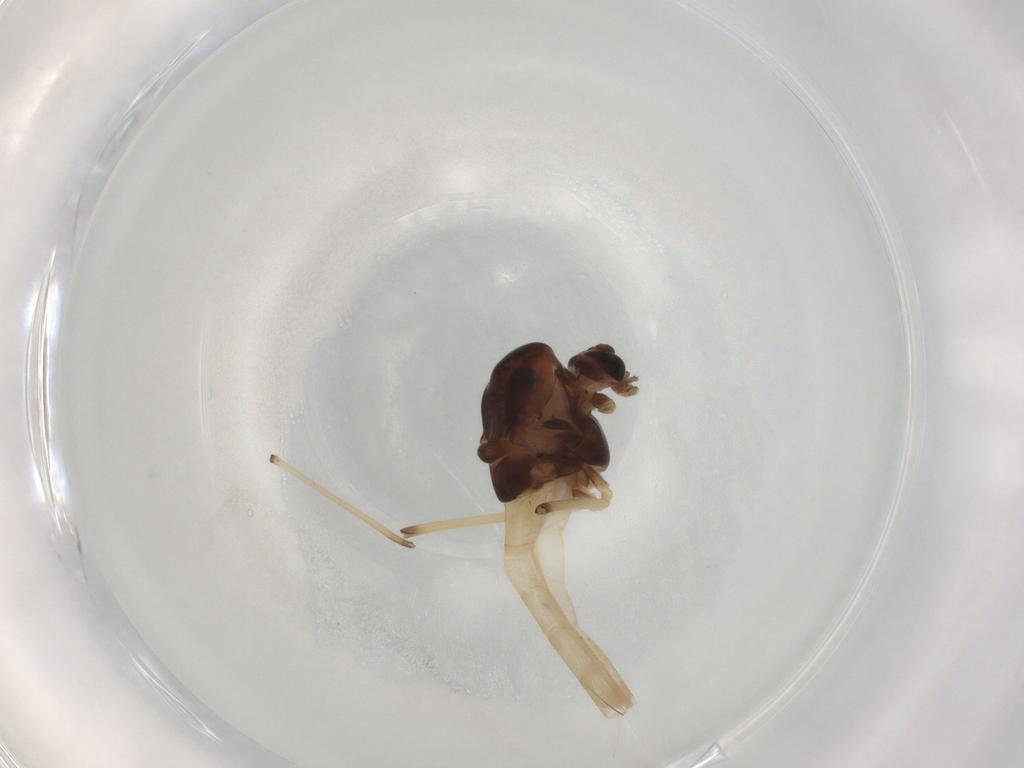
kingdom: Animalia
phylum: Arthropoda
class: Insecta
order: Diptera
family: Chironomidae
